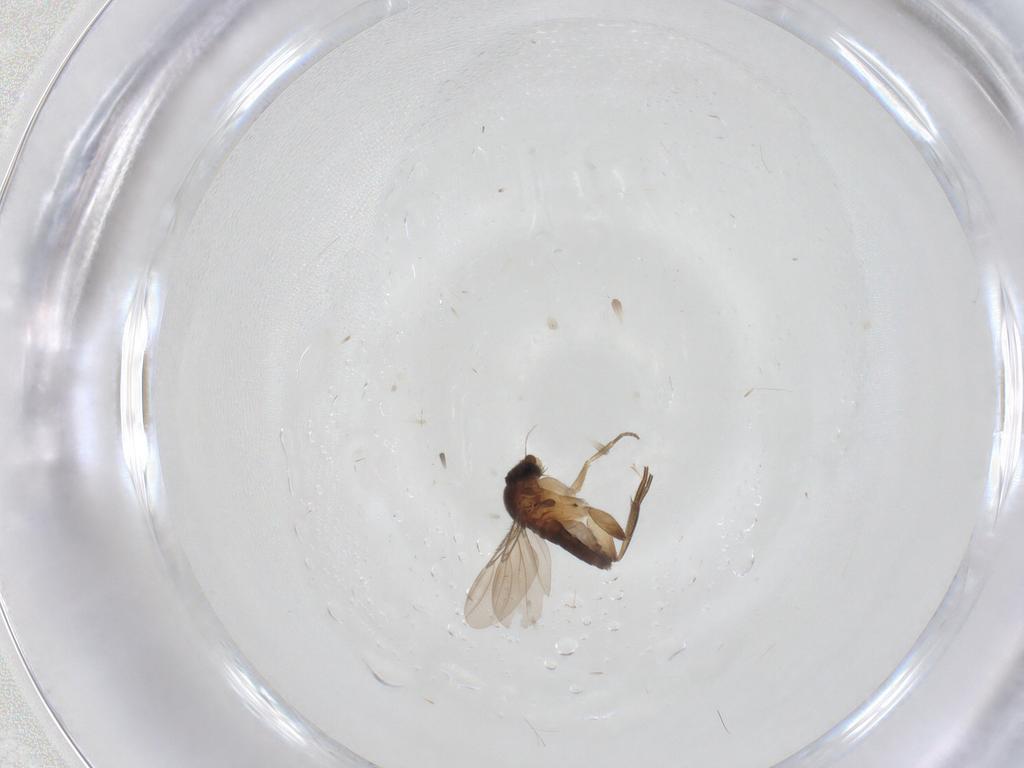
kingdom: Animalia
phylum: Arthropoda
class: Insecta
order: Diptera
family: Phoridae
